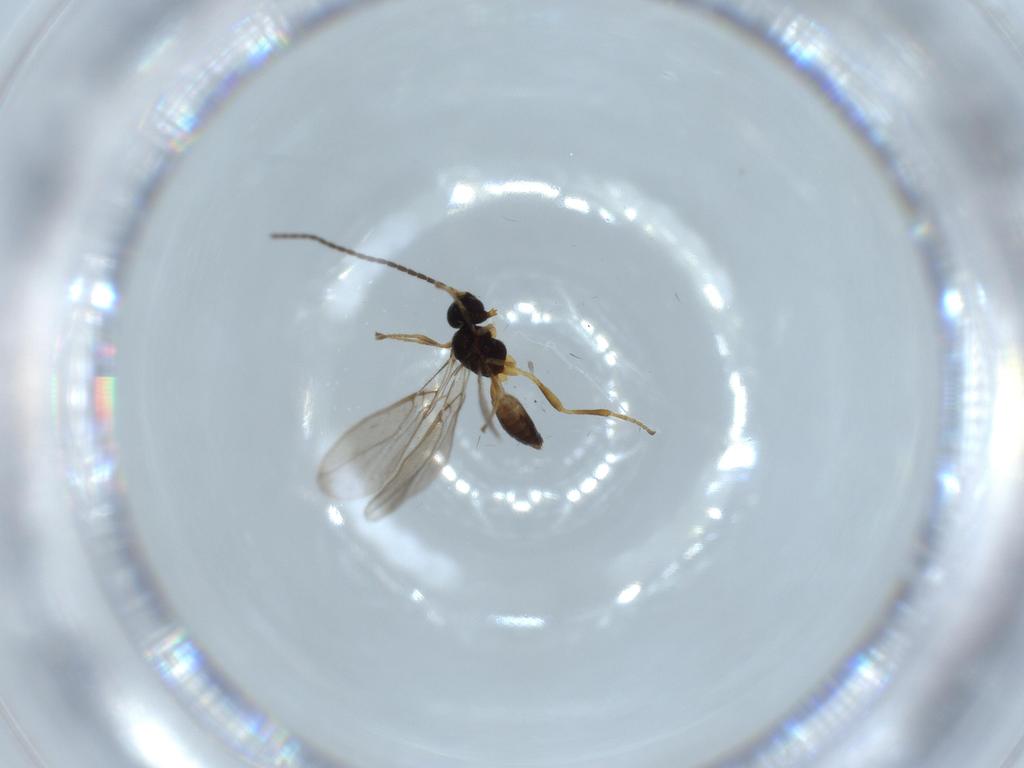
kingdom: Animalia
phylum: Arthropoda
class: Insecta
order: Hymenoptera
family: Braconidae
